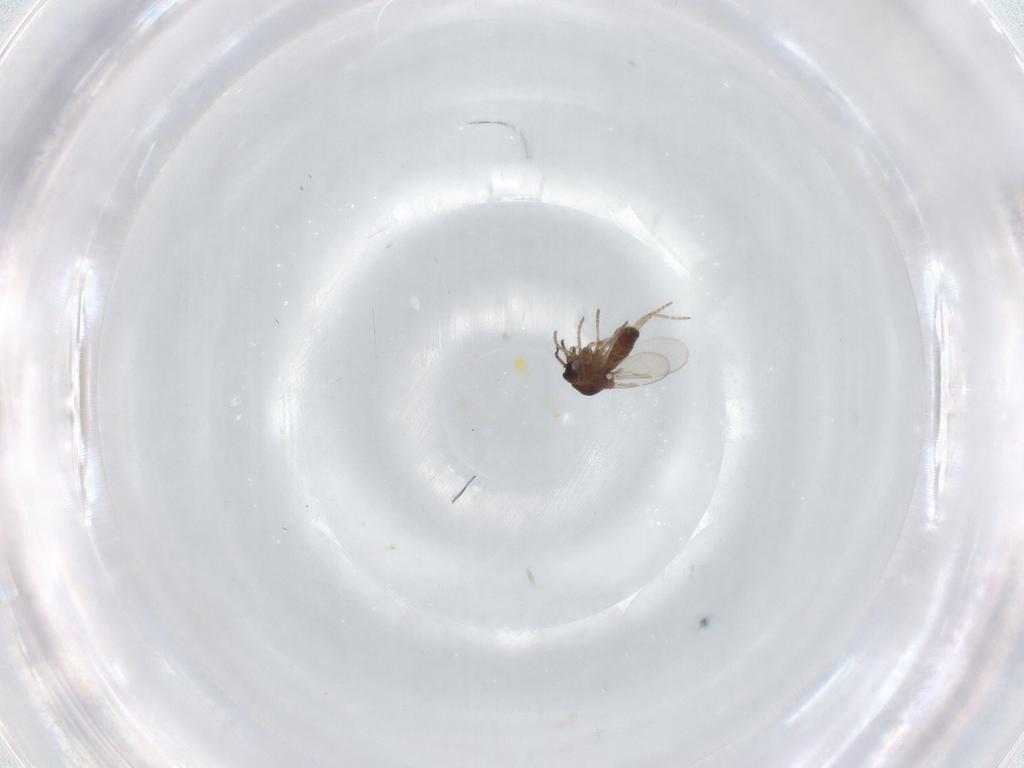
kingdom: Animalia
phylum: Arthropoda
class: Insecta
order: Diptera
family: Ceratopogonidae
